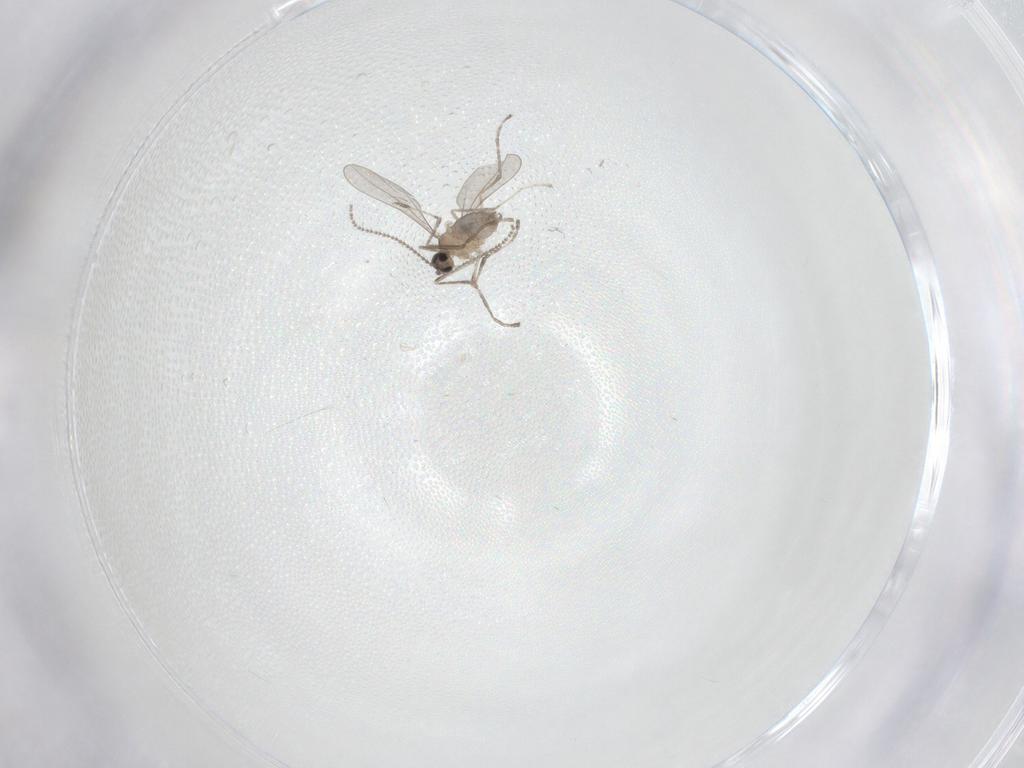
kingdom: Animalia
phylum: Arthropoda
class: Insecta
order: Diptera
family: Cecidomyiidae
